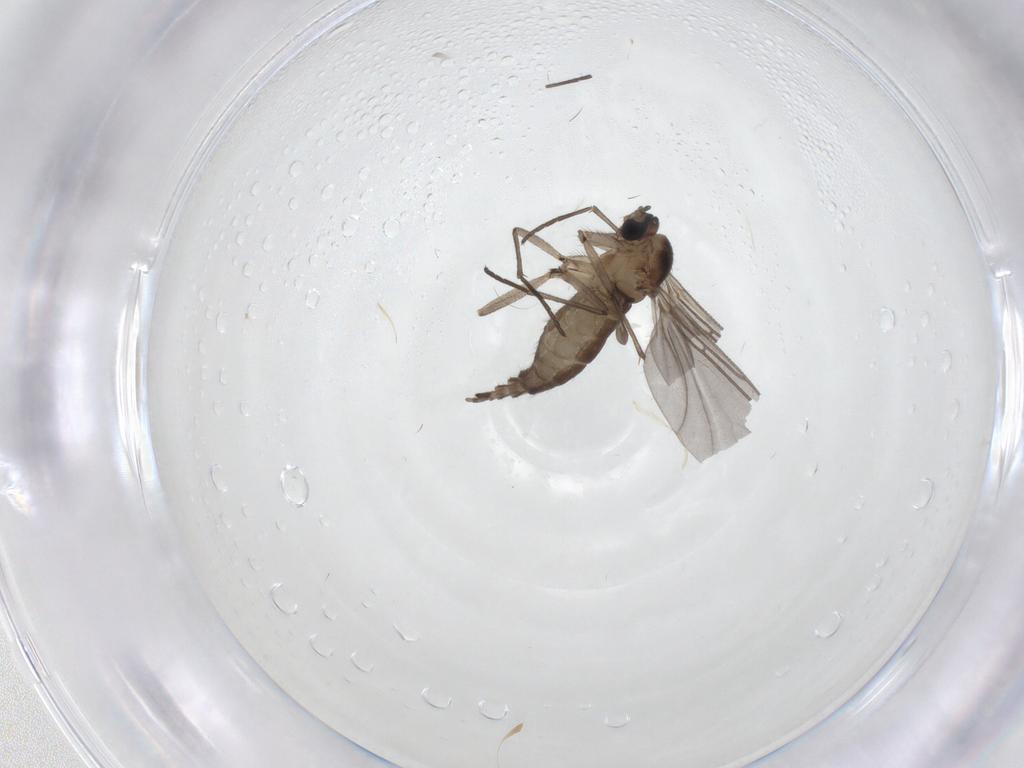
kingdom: Animalia
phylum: Arthropoda
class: Insecta
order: Diptera
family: Sciaridae
